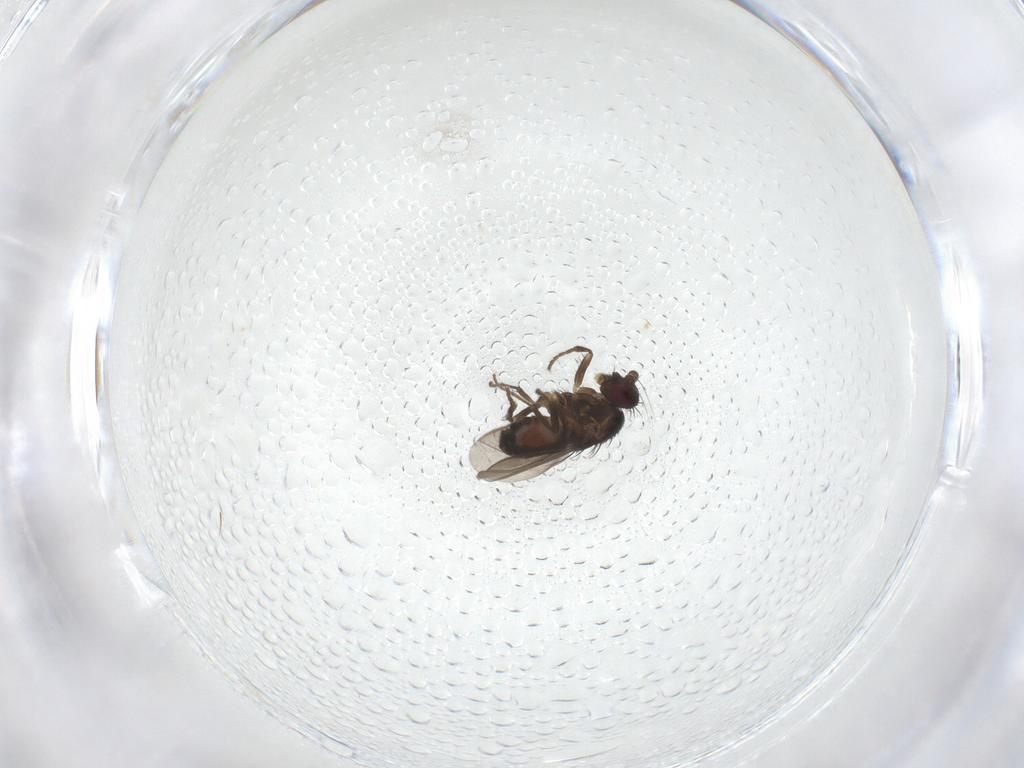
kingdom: Animalia
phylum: Arthropoda
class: Insecta
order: Diptera
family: Sphaeroceridae
